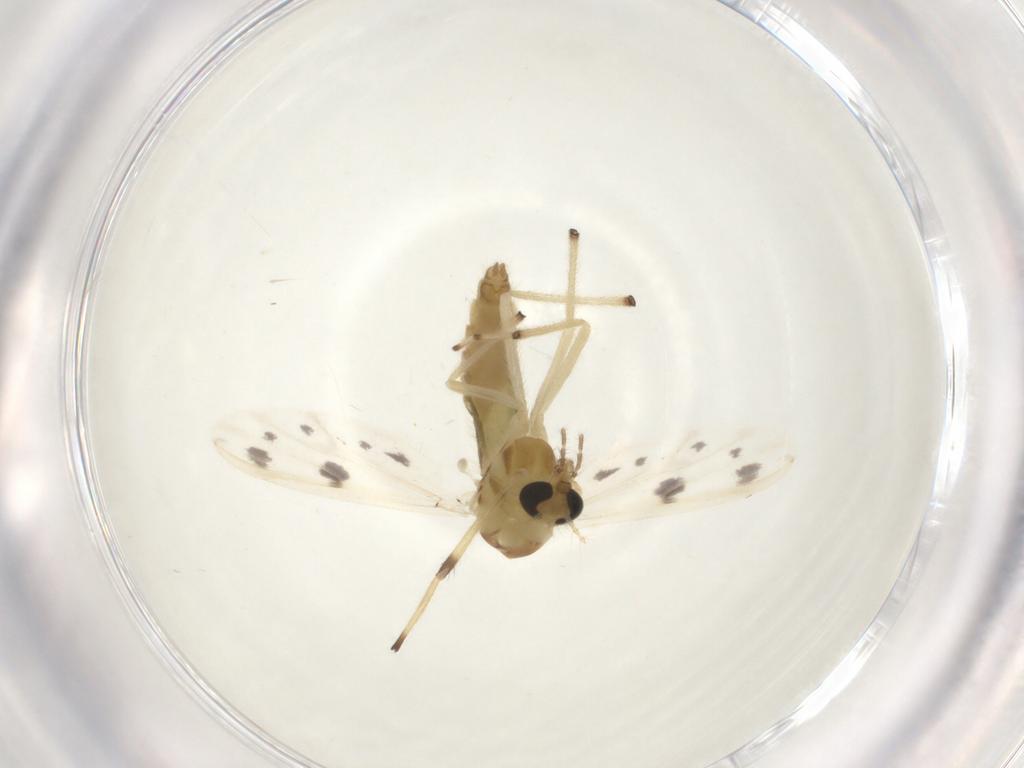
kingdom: Animalia
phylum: Arthropoda
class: Insecta
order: Diptera
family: Chironomidae
